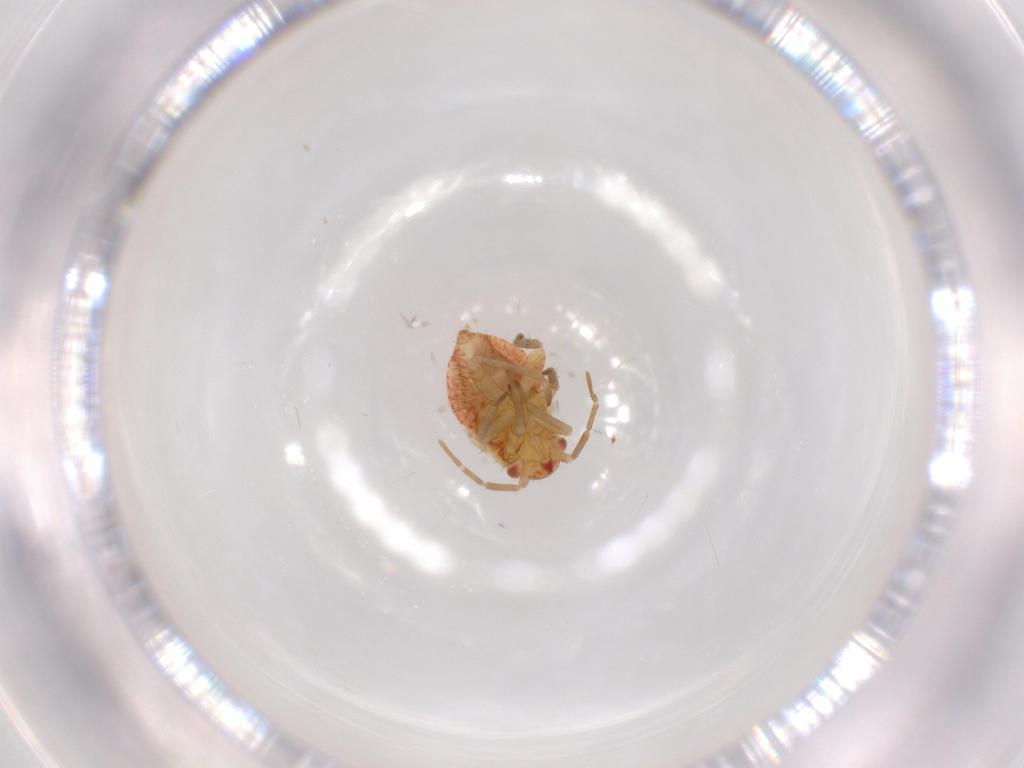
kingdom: Animalia
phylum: Arthropoda
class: Insecta
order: Hemiptera
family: Miridae
